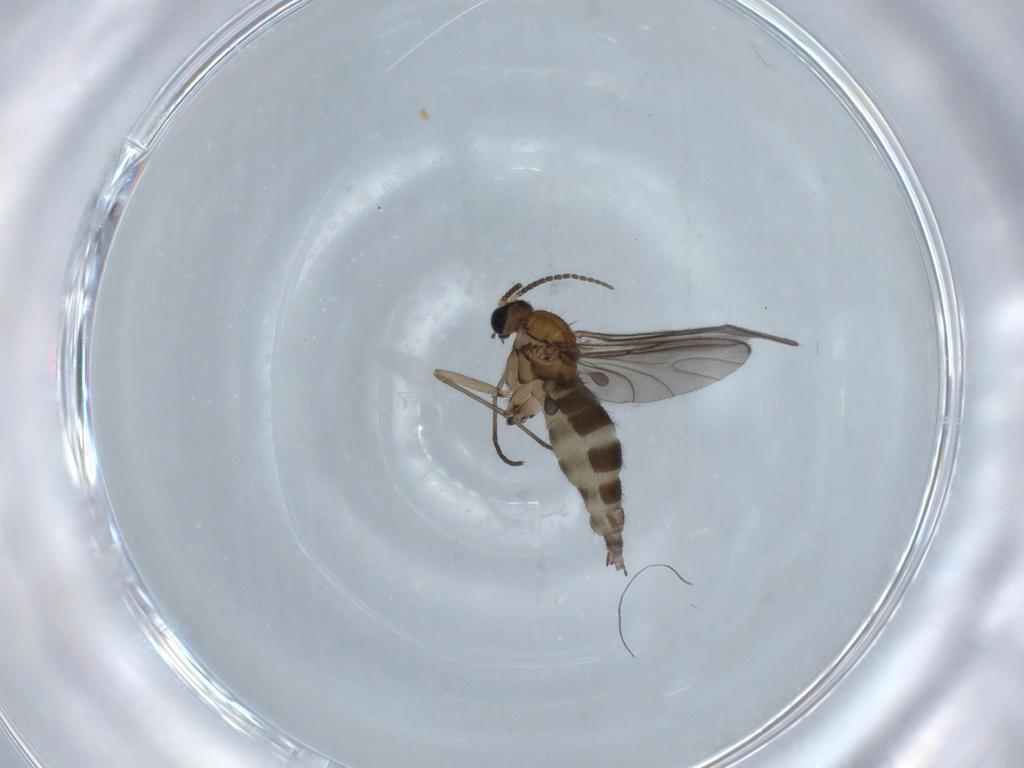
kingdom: Animalia
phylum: Arthropoda
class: Insecta
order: Diptera
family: Sciaridae
